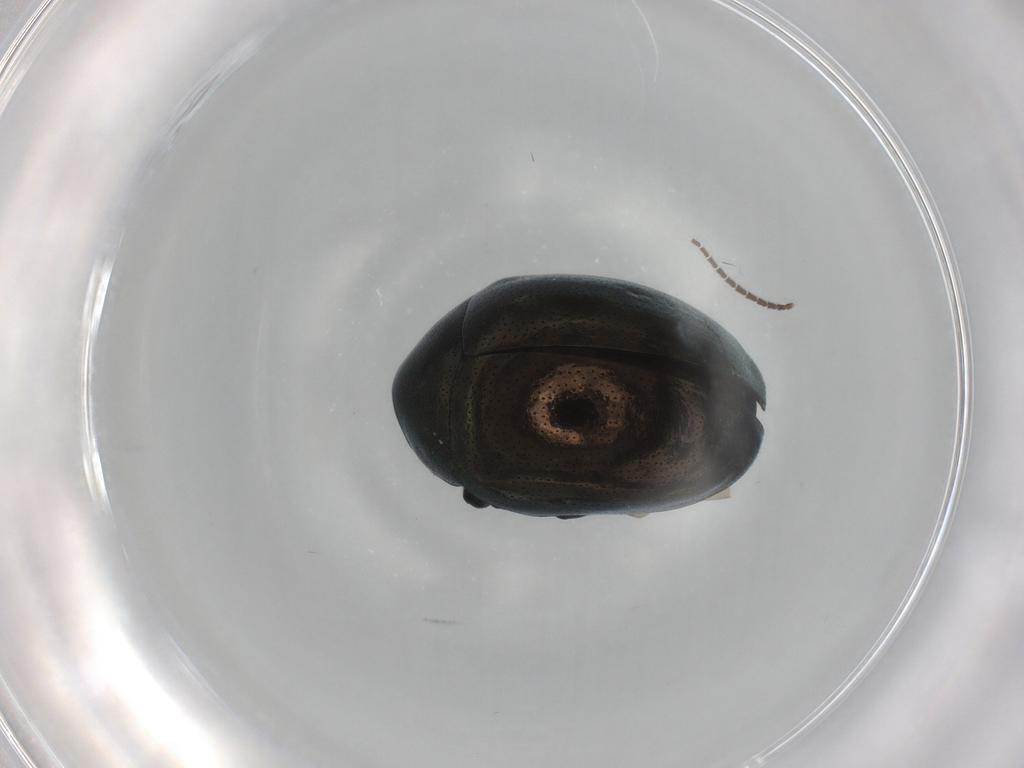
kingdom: Animalia
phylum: Arthropoda
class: Insecta
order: Coleoptera
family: Chrysomelidae
